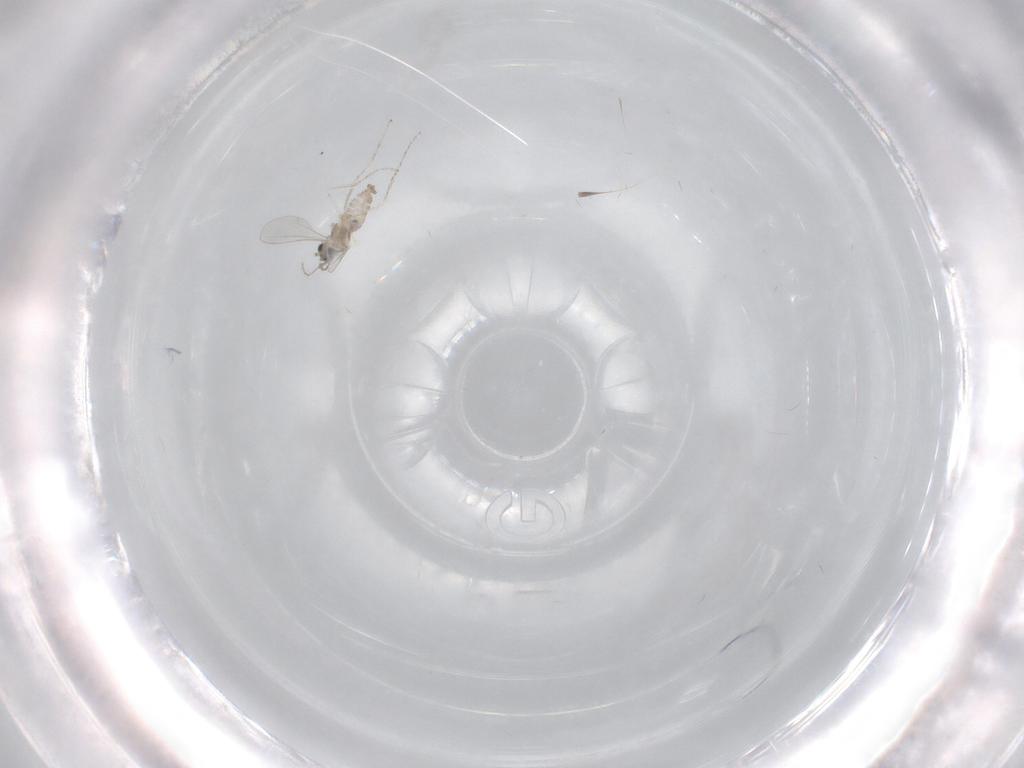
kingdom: Animalia
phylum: Arthropoda
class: Insecta
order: Diptera
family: Cecidomyiidae
